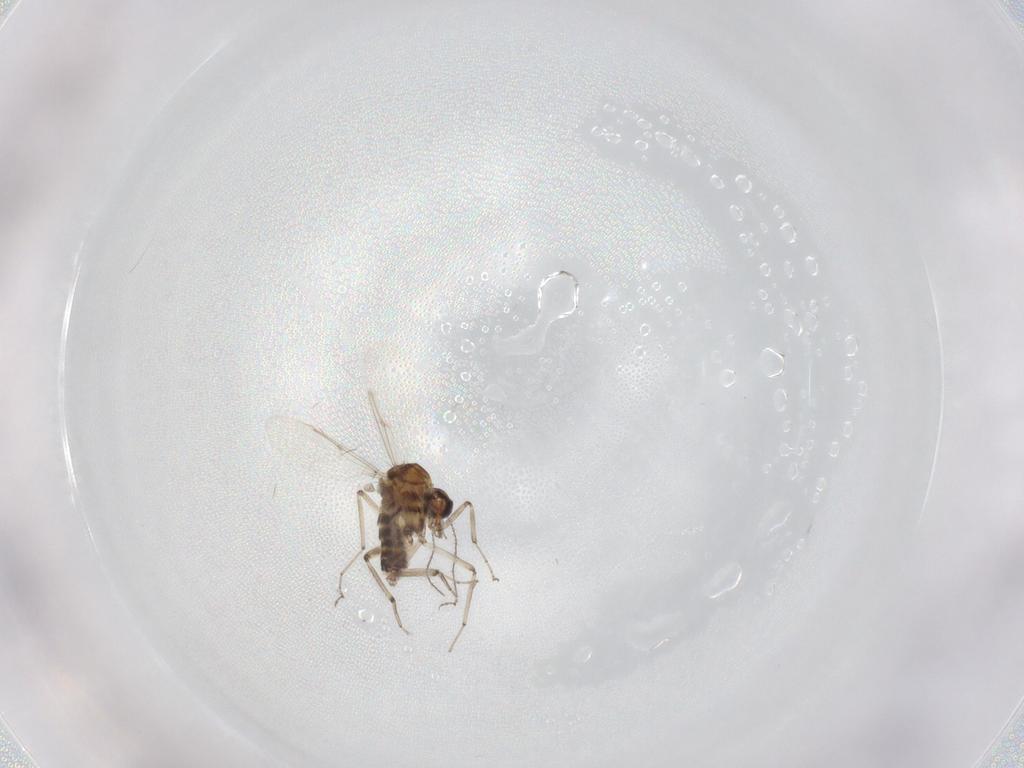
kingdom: Animalia
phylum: Arthropoda
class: Insecta
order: Diptera
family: Ceratopogonidae
